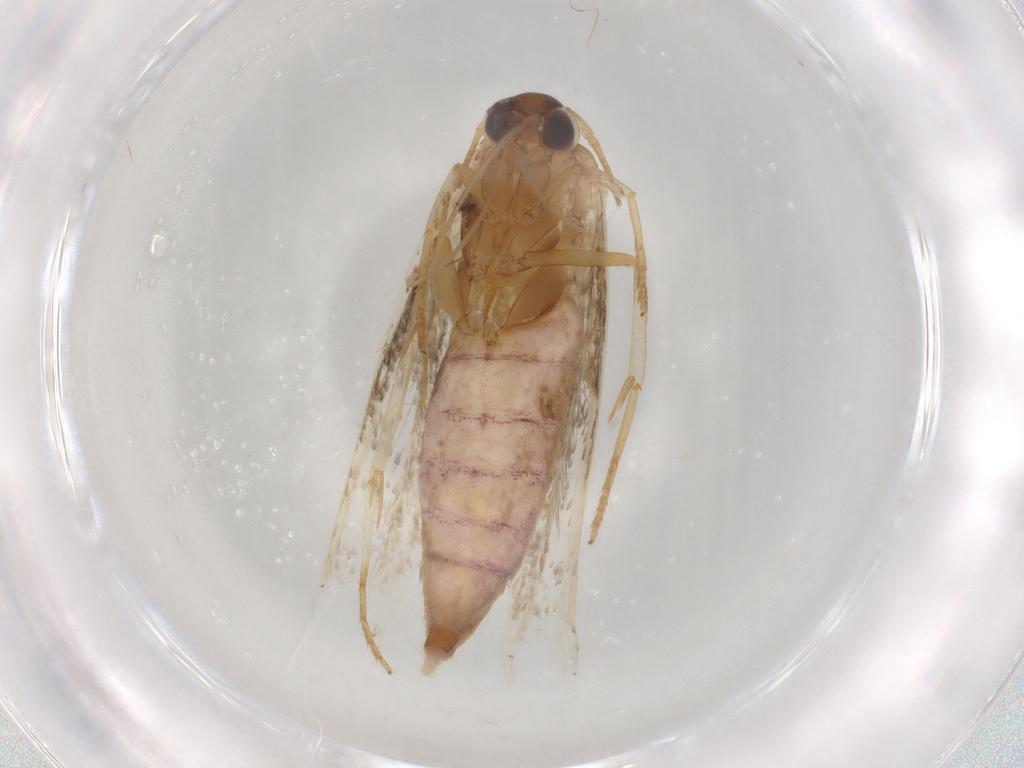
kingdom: Animalia
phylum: Arthropoda
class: Insecta
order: Lepidoptera
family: Blastobasidae
